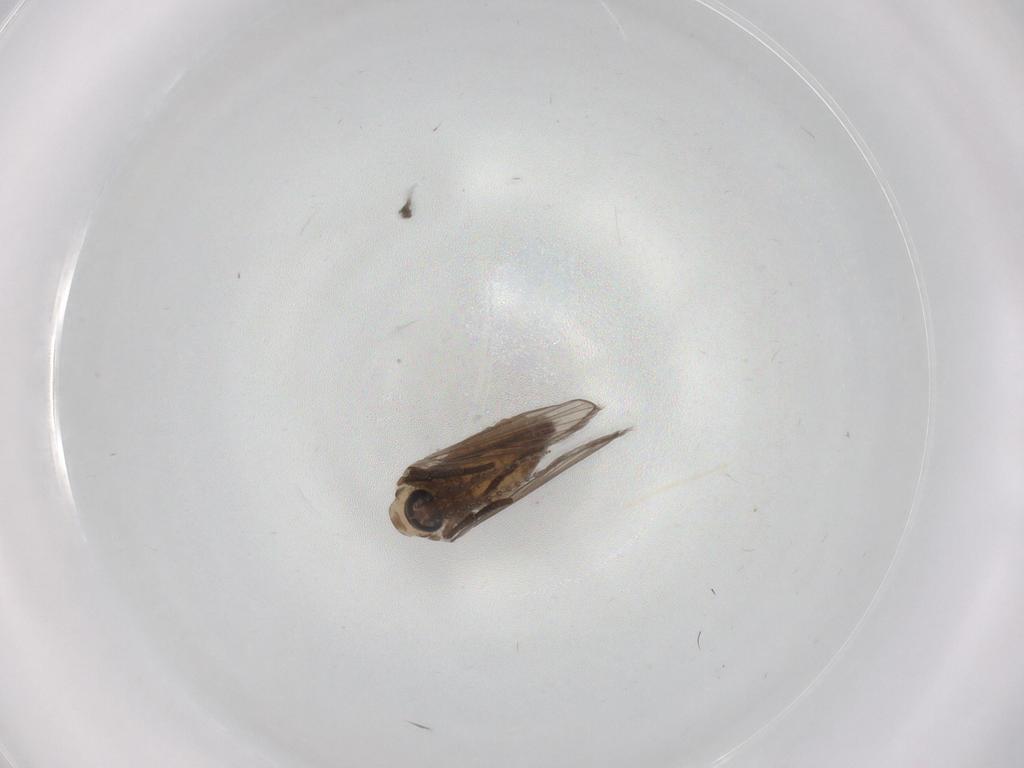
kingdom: Animalia
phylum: Arthropoda
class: Insecta
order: Diptera
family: Psychodidae
